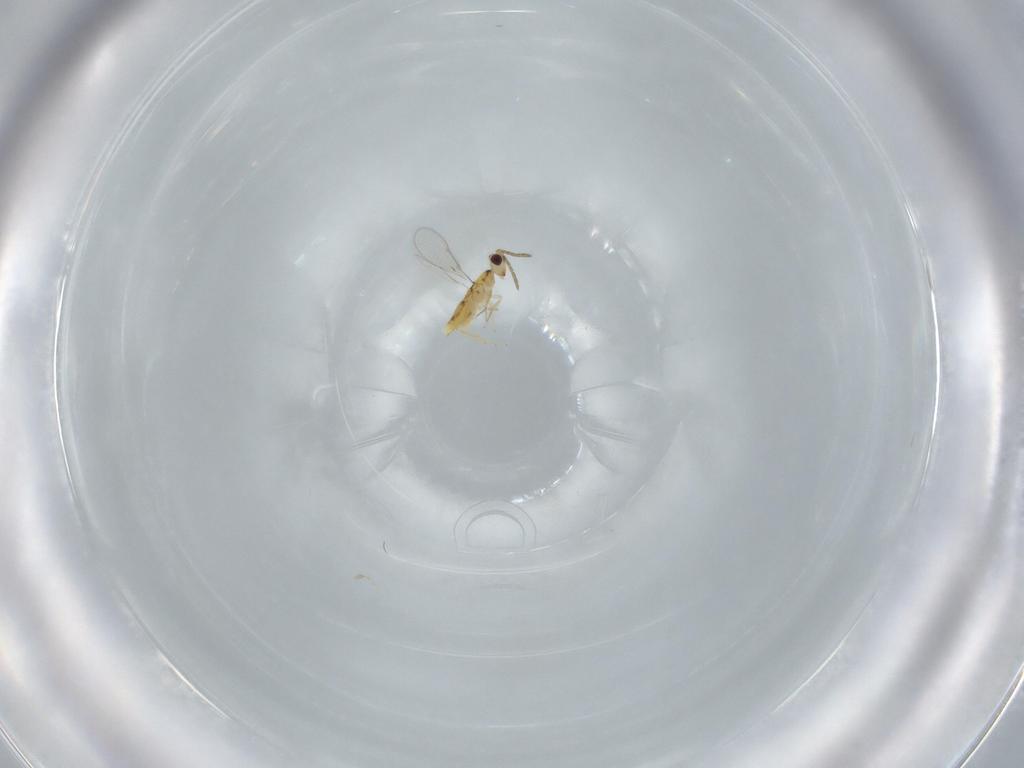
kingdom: Animalia
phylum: Arthropoda
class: Insecta
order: Hymenoptera
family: Aphelinidae
